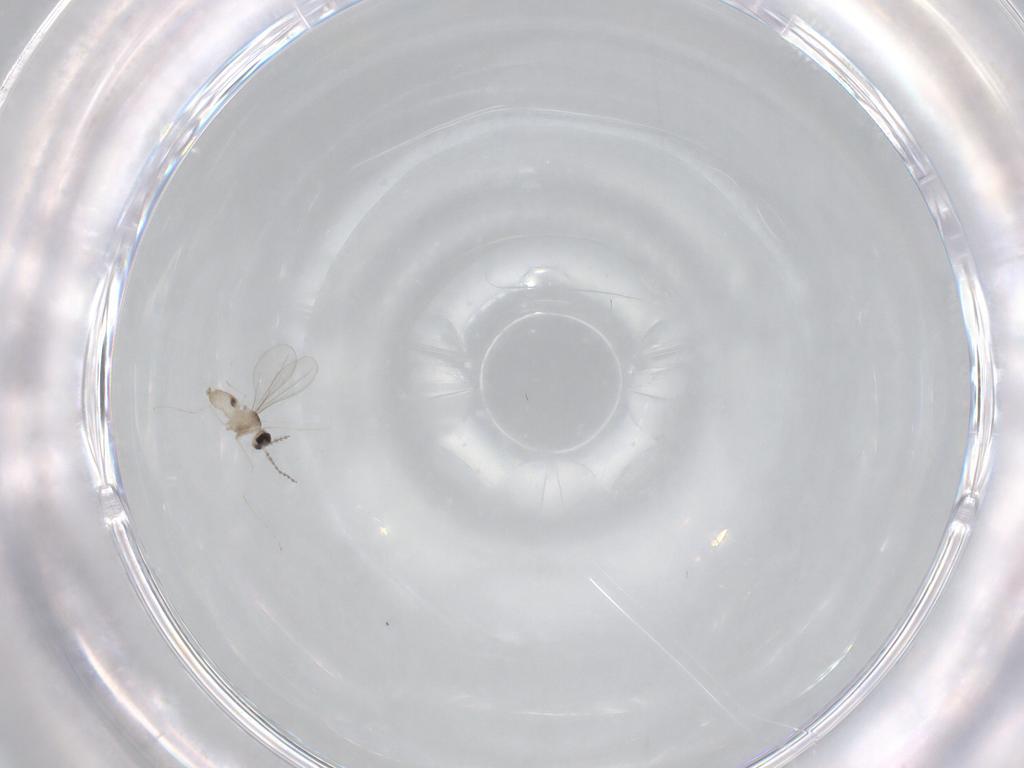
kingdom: Animalia
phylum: Arthropoda
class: Insecta
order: Diptera
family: Cecidomyiidae
